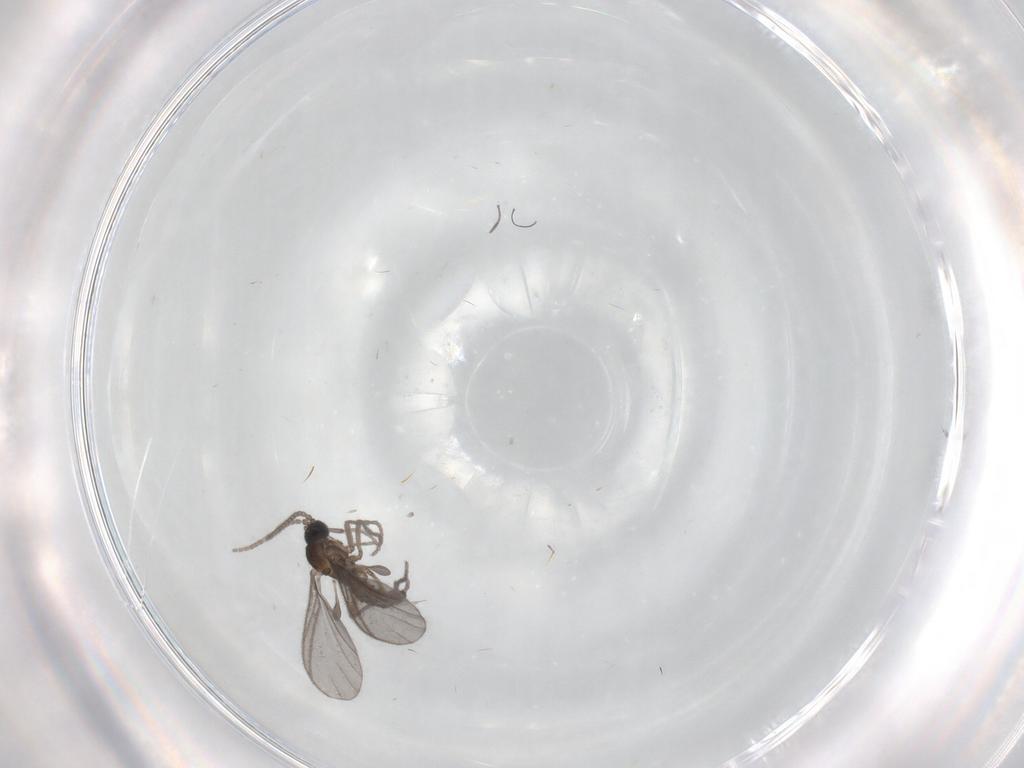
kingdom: Animalia
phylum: Arthropoda
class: Insecta
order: Diptera
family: Sciaridae
